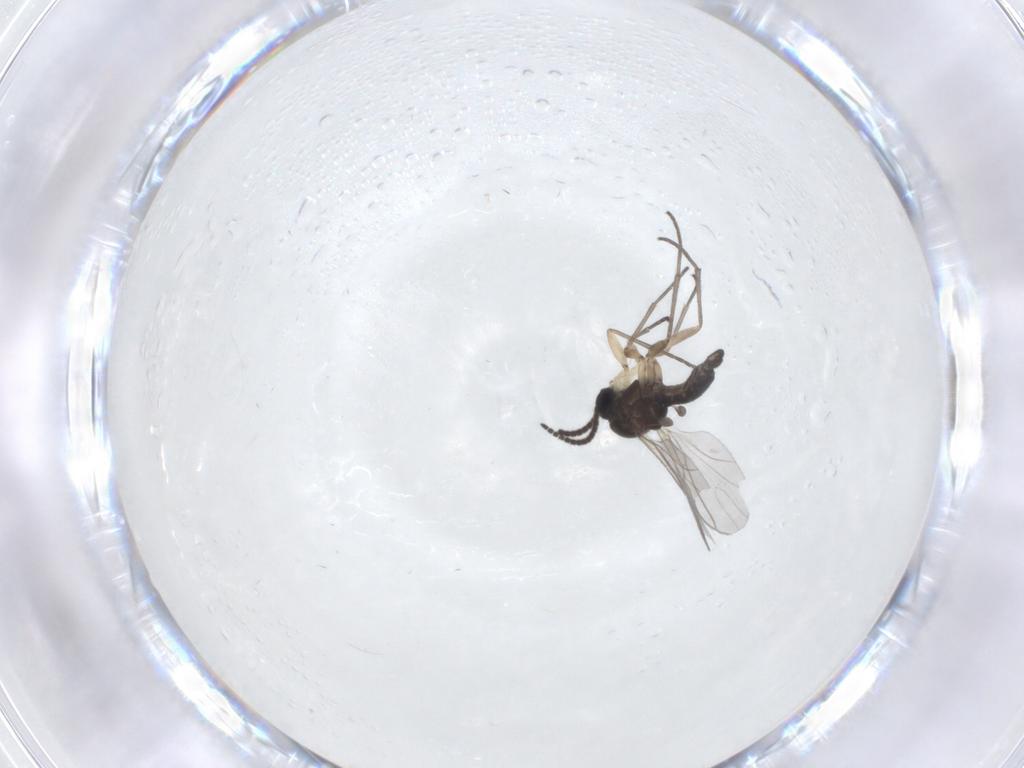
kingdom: Animalia
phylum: Arthropoda
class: Insecta
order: Diptera
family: Sciaridae
